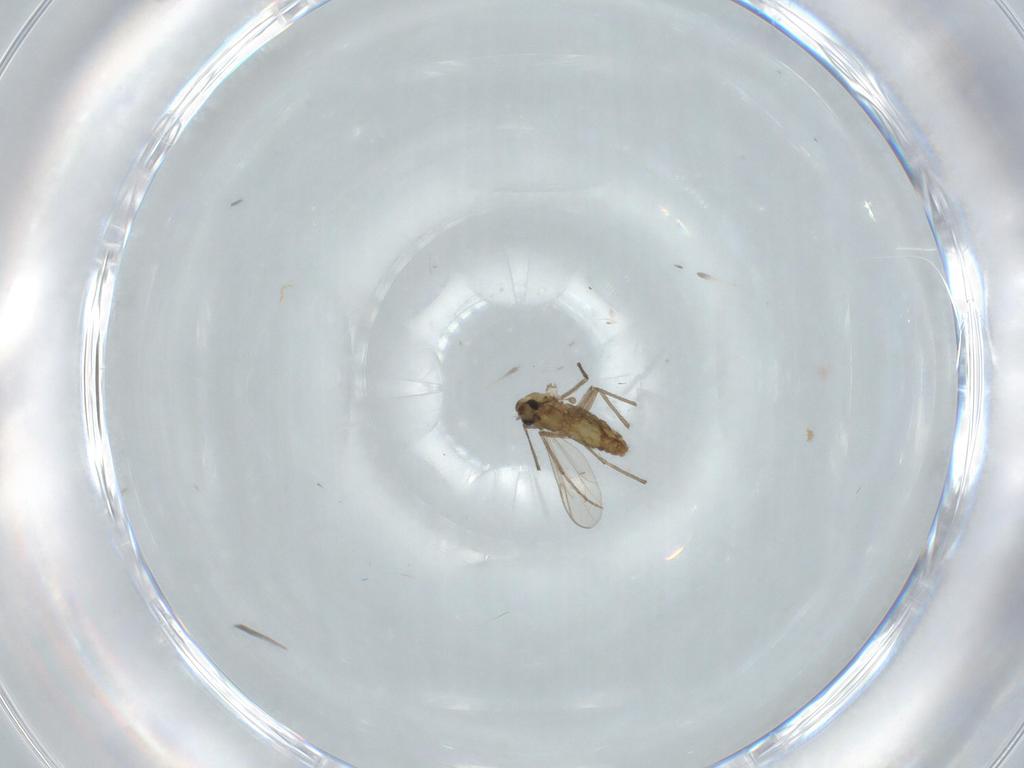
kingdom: Animalia
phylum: Arthropoda
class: Insecta
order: Diptera
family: Chironomidae
